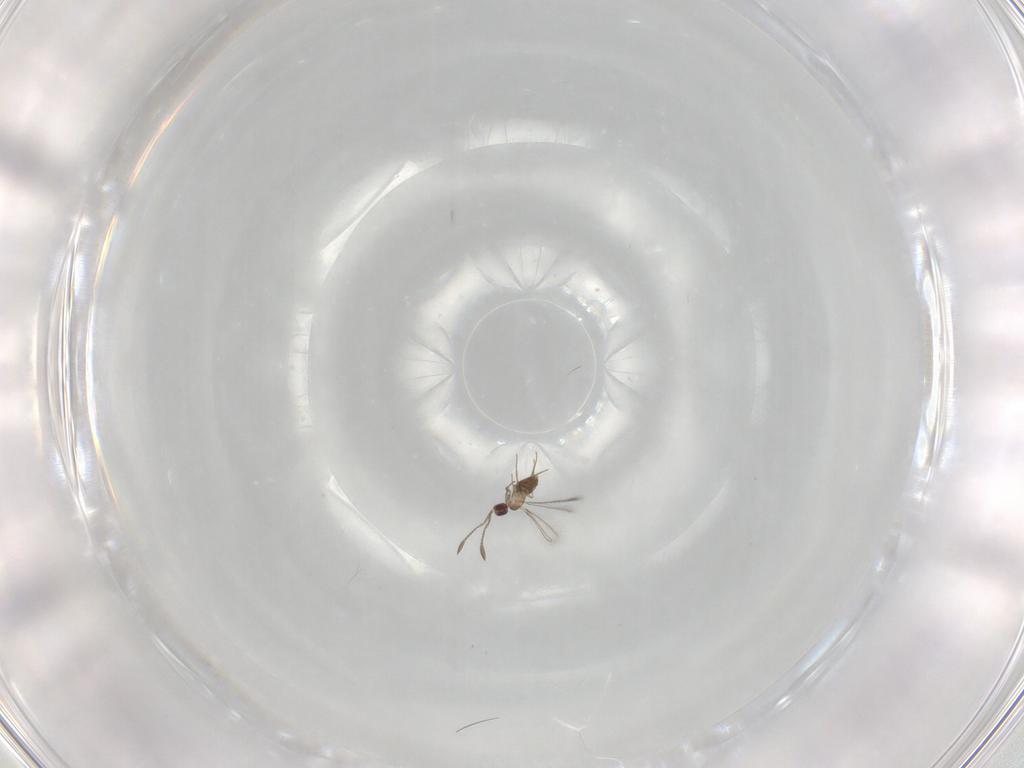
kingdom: Animalia
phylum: Arthropoda
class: Insecta
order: Hymenoptera
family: Mymaridae
